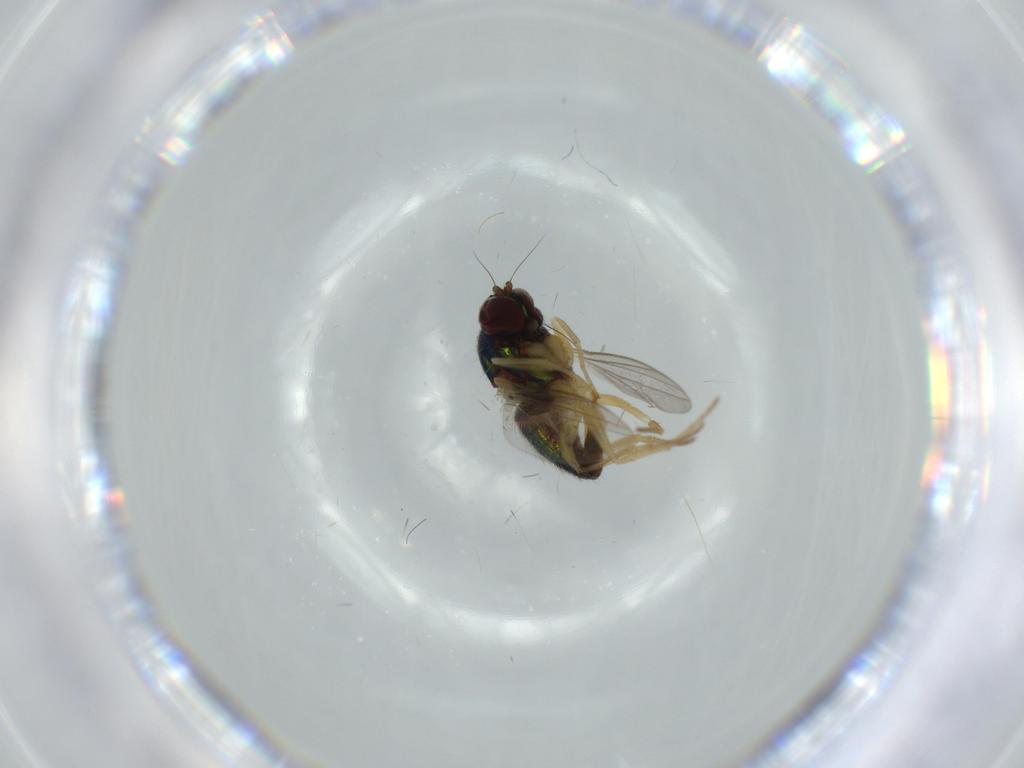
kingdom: Animalia
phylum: Arthropoda
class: Insecta
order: Diptera
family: Dolichopodidae
